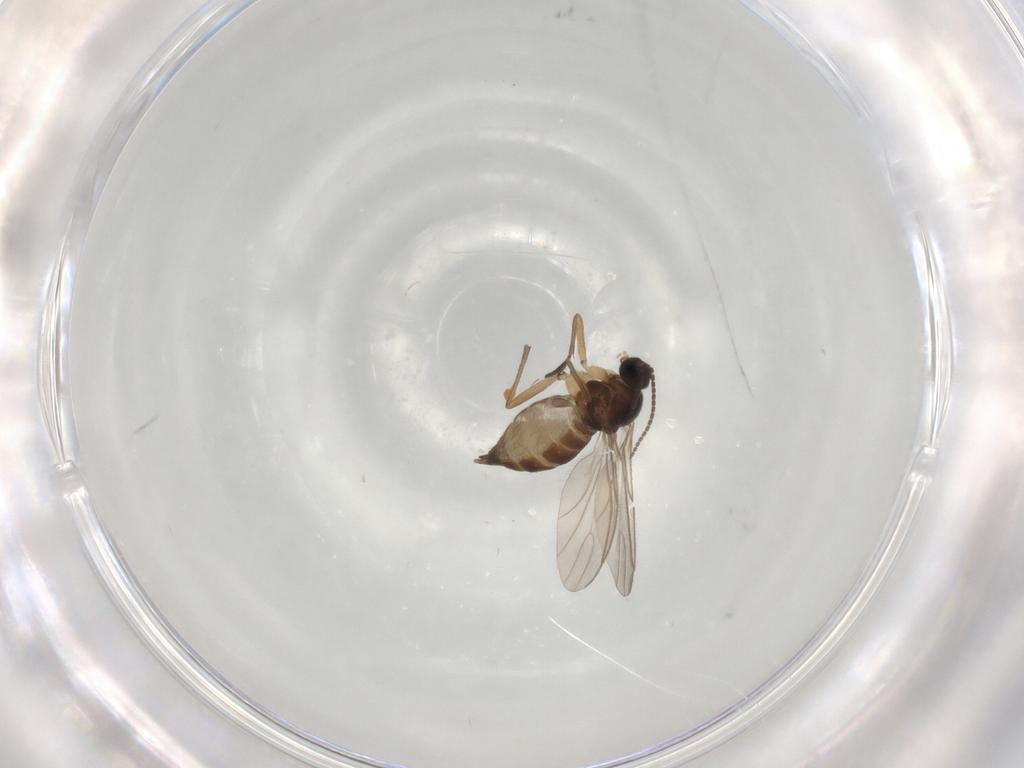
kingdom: Animalia
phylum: Arthropoda
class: Insecta
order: Diptera
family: Sciaridae
